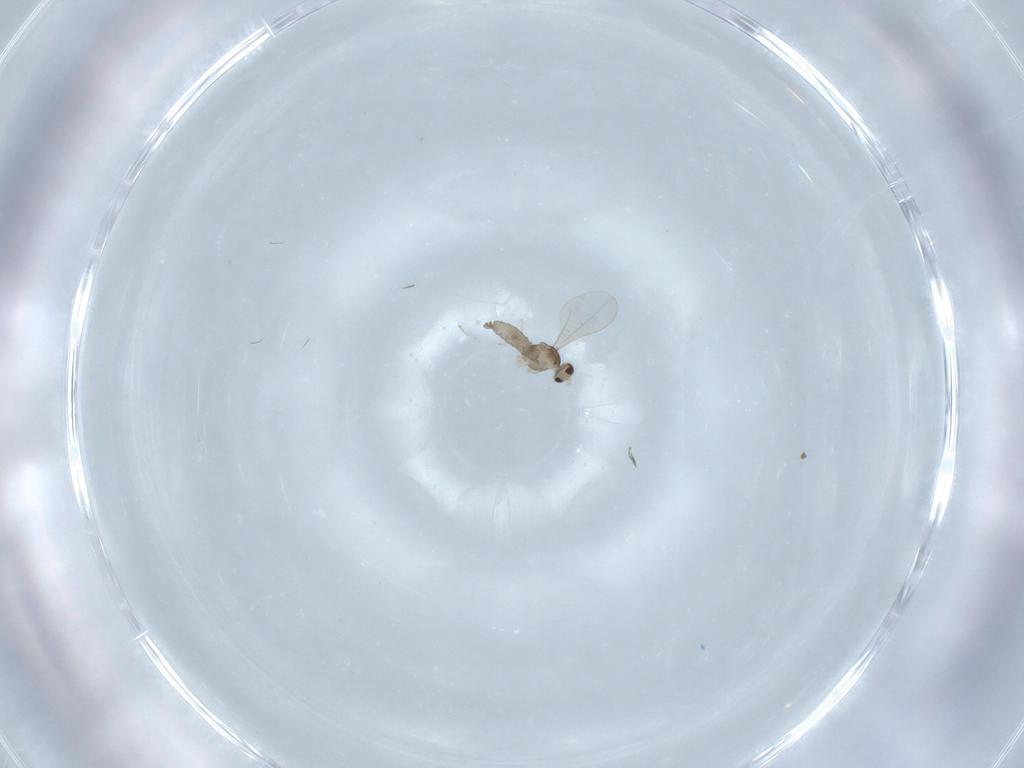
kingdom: Animalia
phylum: Arthropoda
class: Insecta
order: Diptera
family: Cecidomyiidae
